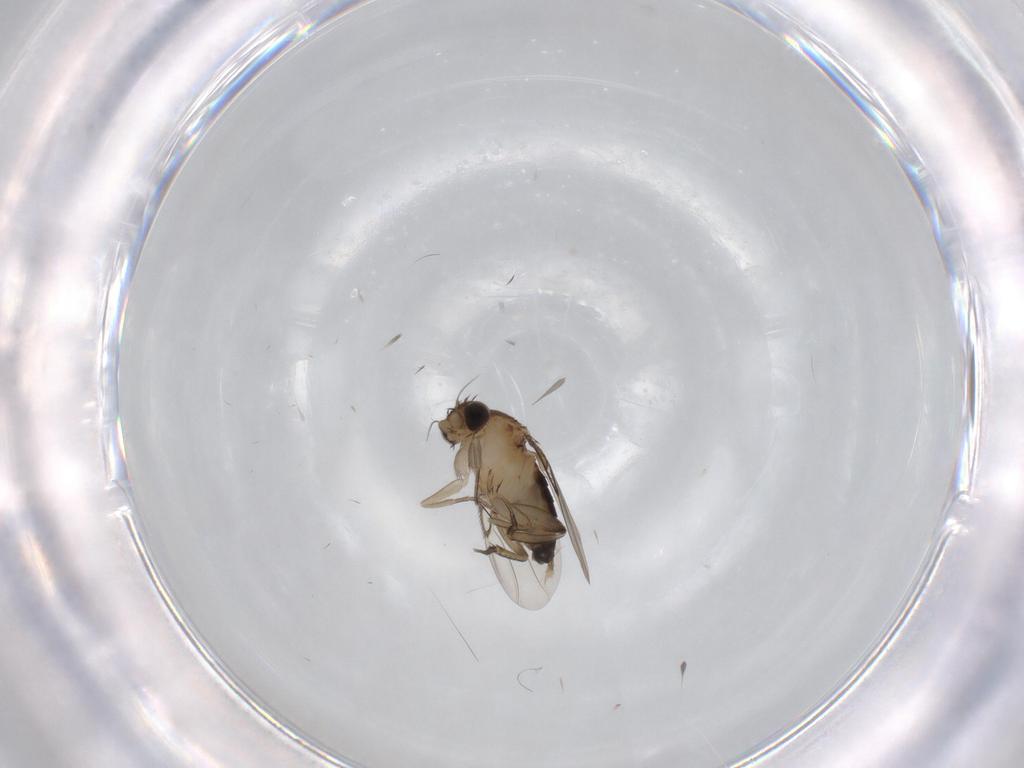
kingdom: Animalia
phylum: Arthropoda
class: Insecta
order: Diptera
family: Phoridae
